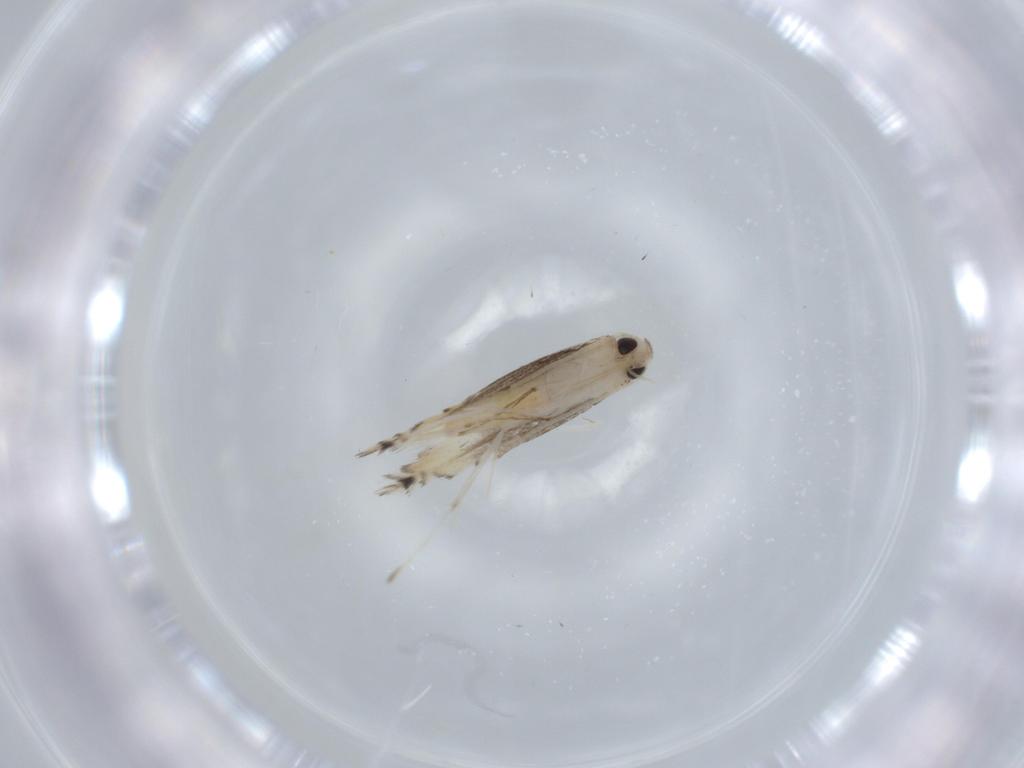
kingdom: Animalia
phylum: Arthropoda
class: Insecta
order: Lepidoptera
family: Gracillariidae
